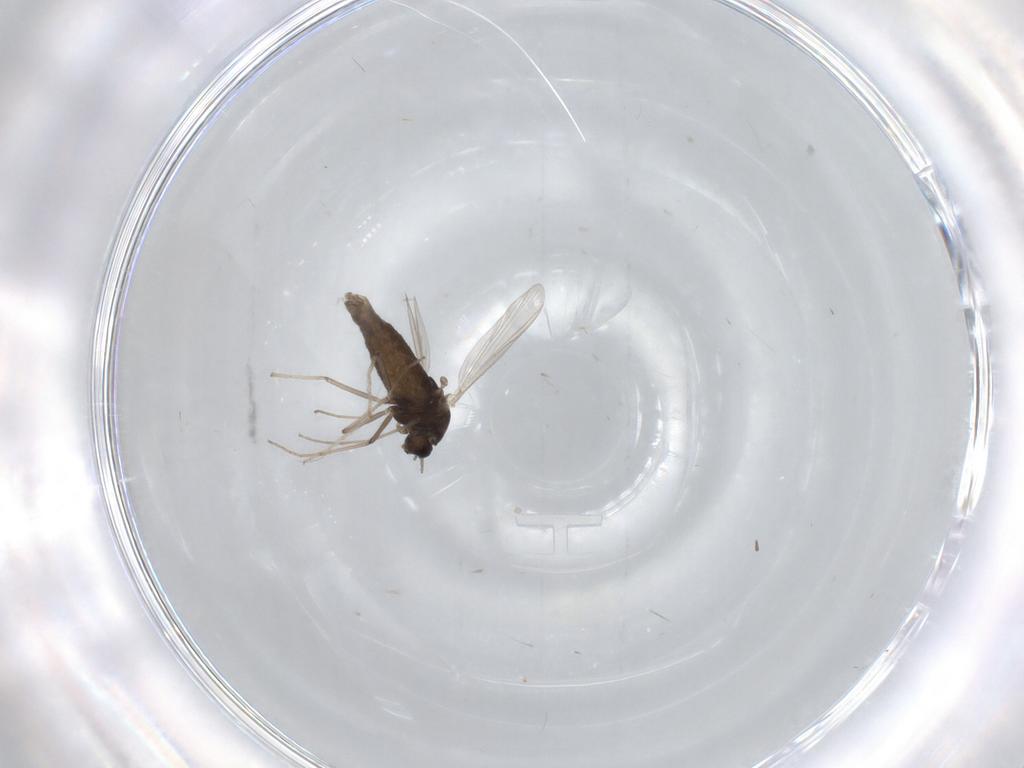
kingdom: Animalia
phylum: Arthropoda
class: Insecta
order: Diptera
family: Chironomidae
